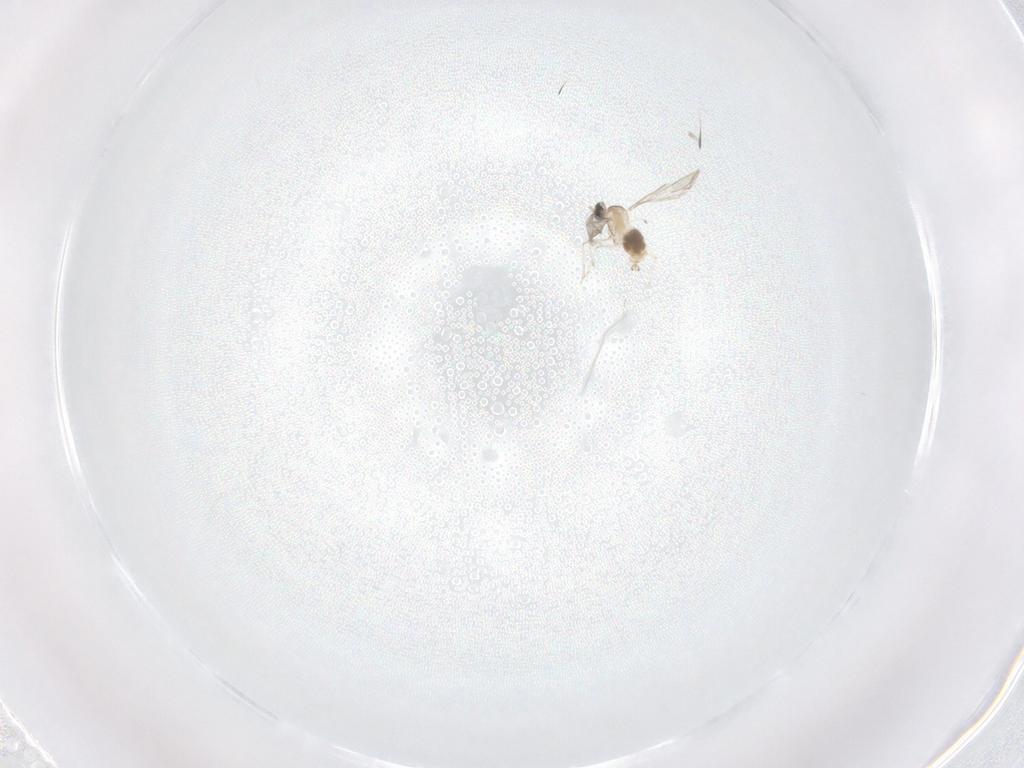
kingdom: Animalia
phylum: Arthropoda
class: Insecta
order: Diptera
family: Cecidomyiidae
